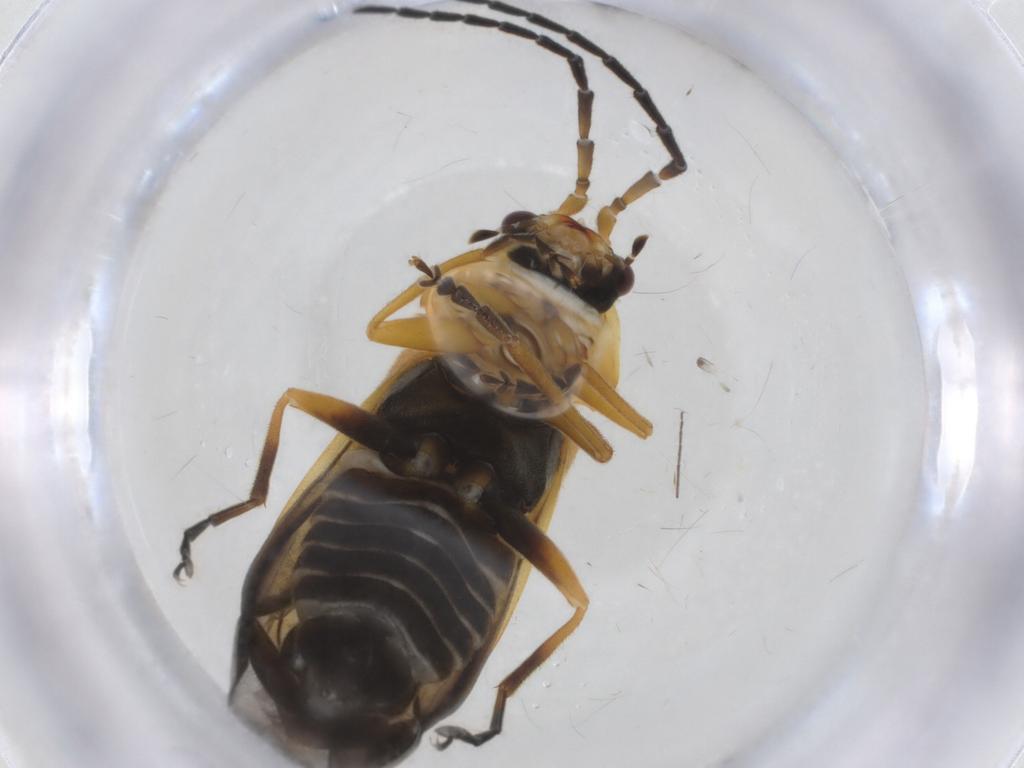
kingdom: Animalia
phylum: Arthropoda
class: Insecta
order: Coleoptera
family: Cantharidae
